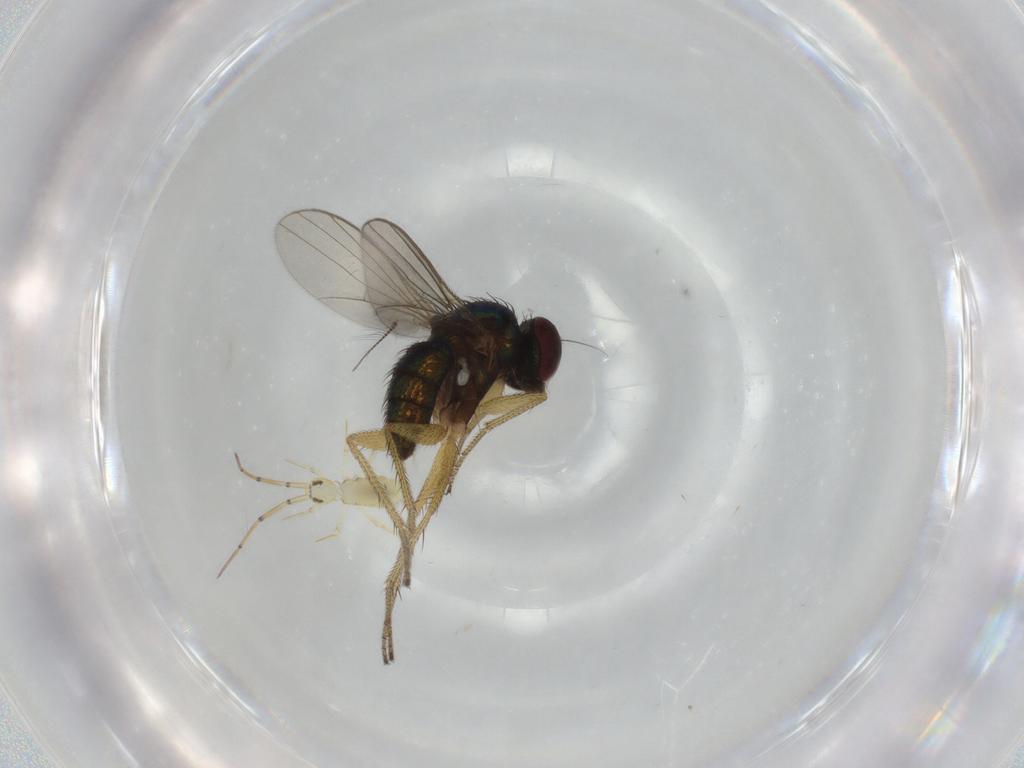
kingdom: Animalia
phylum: Arthropoda
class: Insecta
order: Diptera
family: Dolichopodidae
